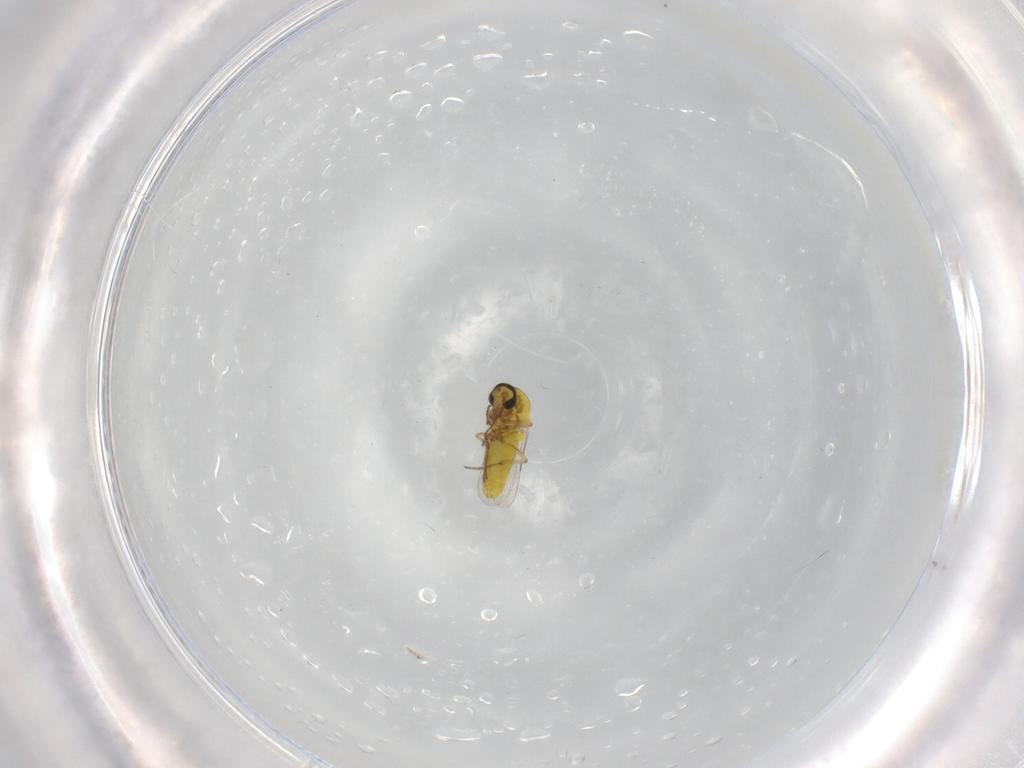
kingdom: Animalia
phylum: Arthropoda
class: Insecta
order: Diptera
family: Ceratopogonidae
